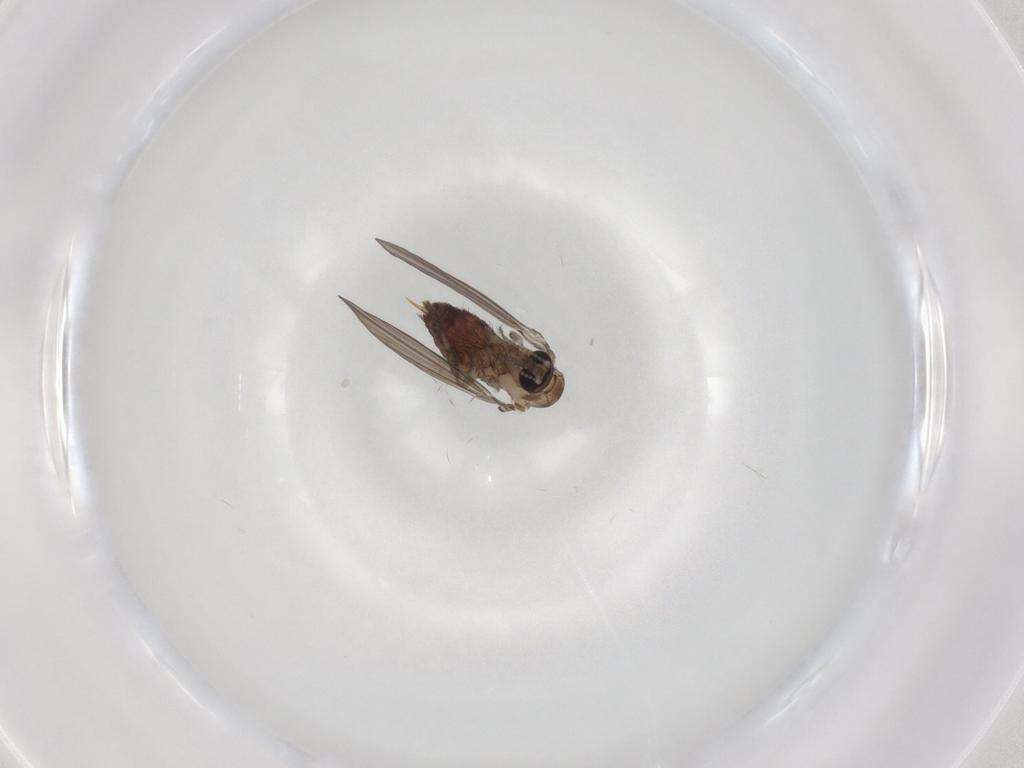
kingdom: Animalia
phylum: Arthropoda
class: Insecta
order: Diptera
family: Psychodidae
